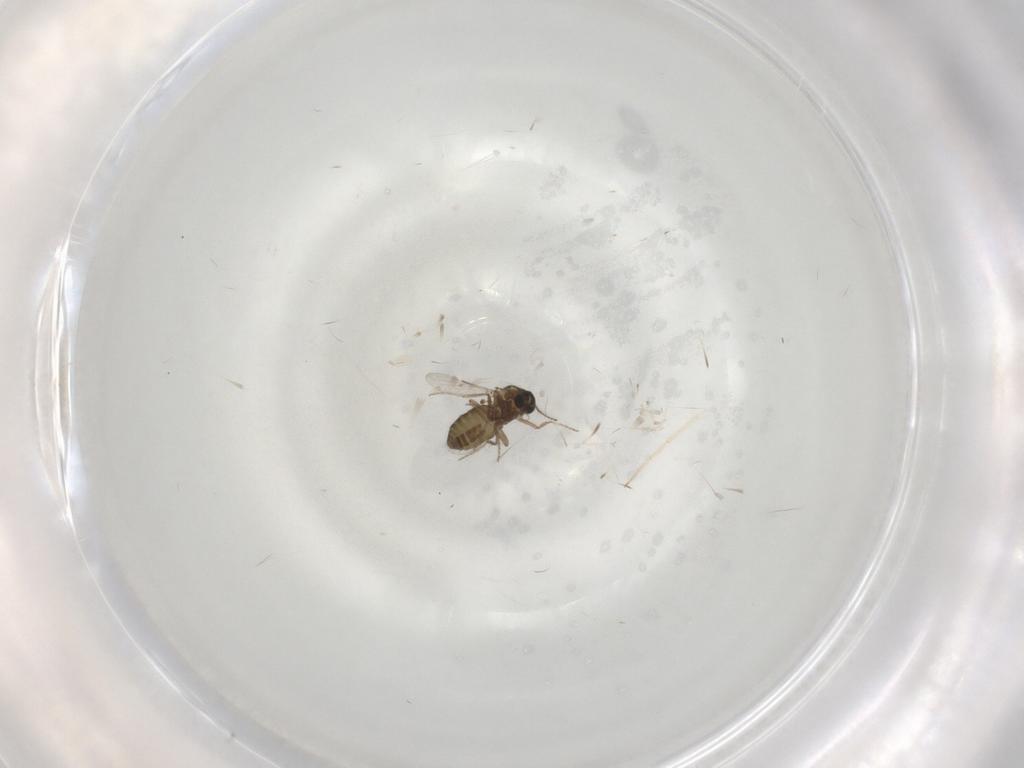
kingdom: Animalia
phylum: Arthropoda
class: Insecta
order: Diptera
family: Ceratopogonidae
